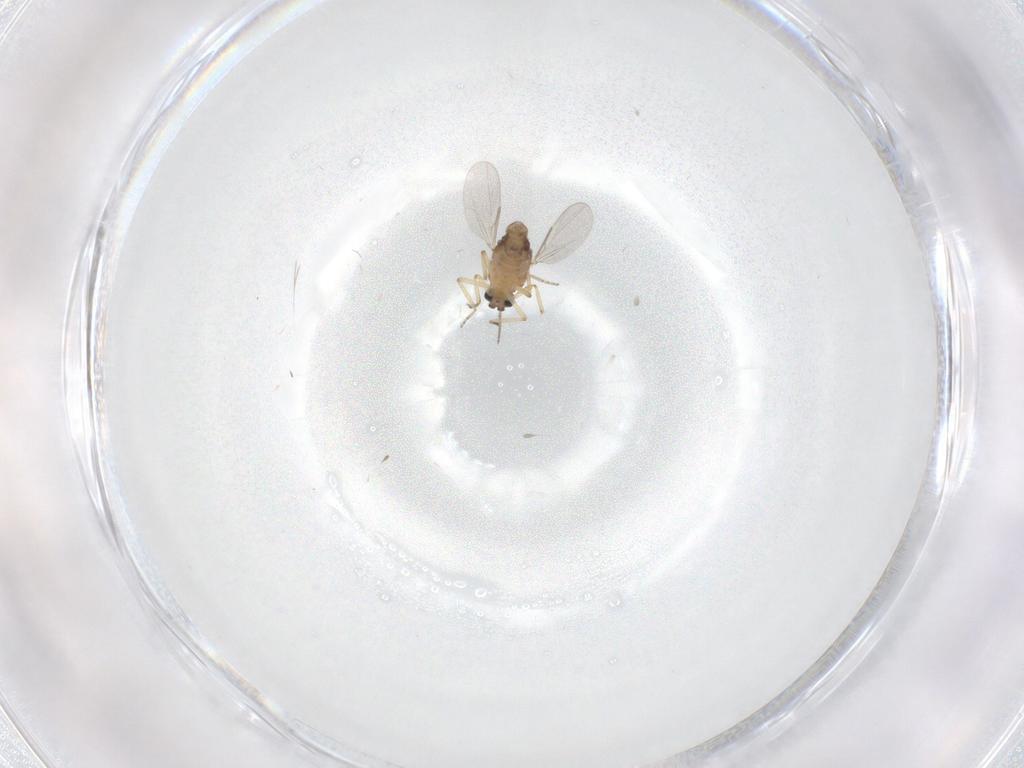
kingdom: Animalia
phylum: Arthropoda
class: Insecta
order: Diptera
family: Ceratopogonidae
